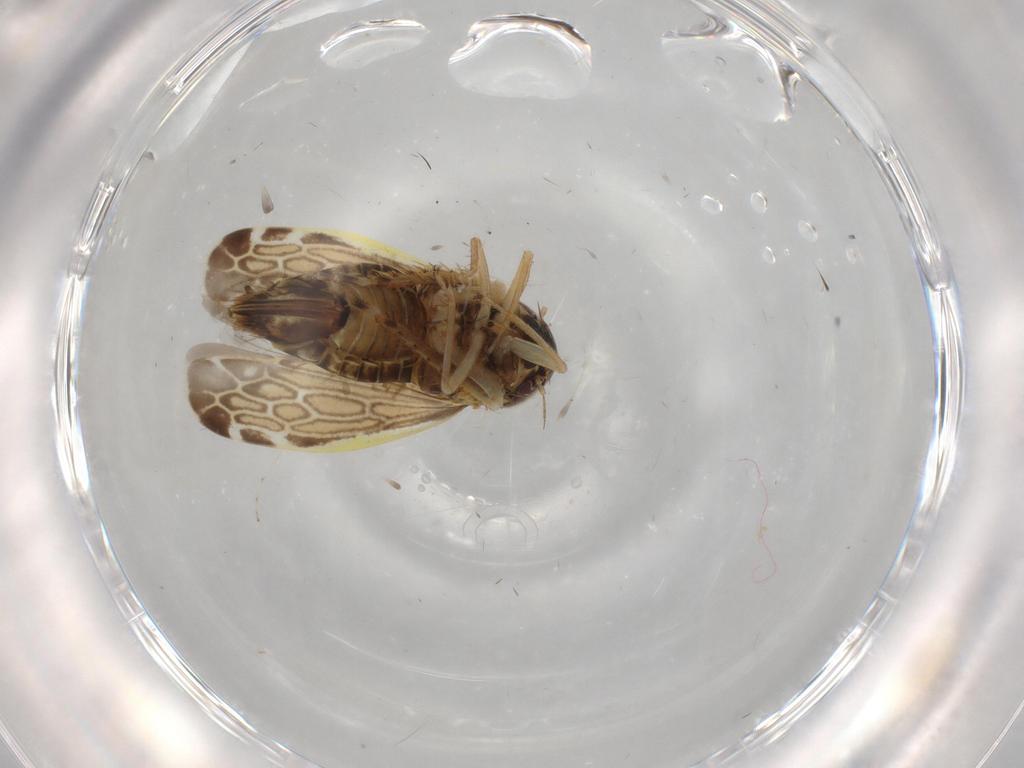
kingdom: Animalia
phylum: Arthropoda
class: Insecta
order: Hemiptera
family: Cicadellidae
